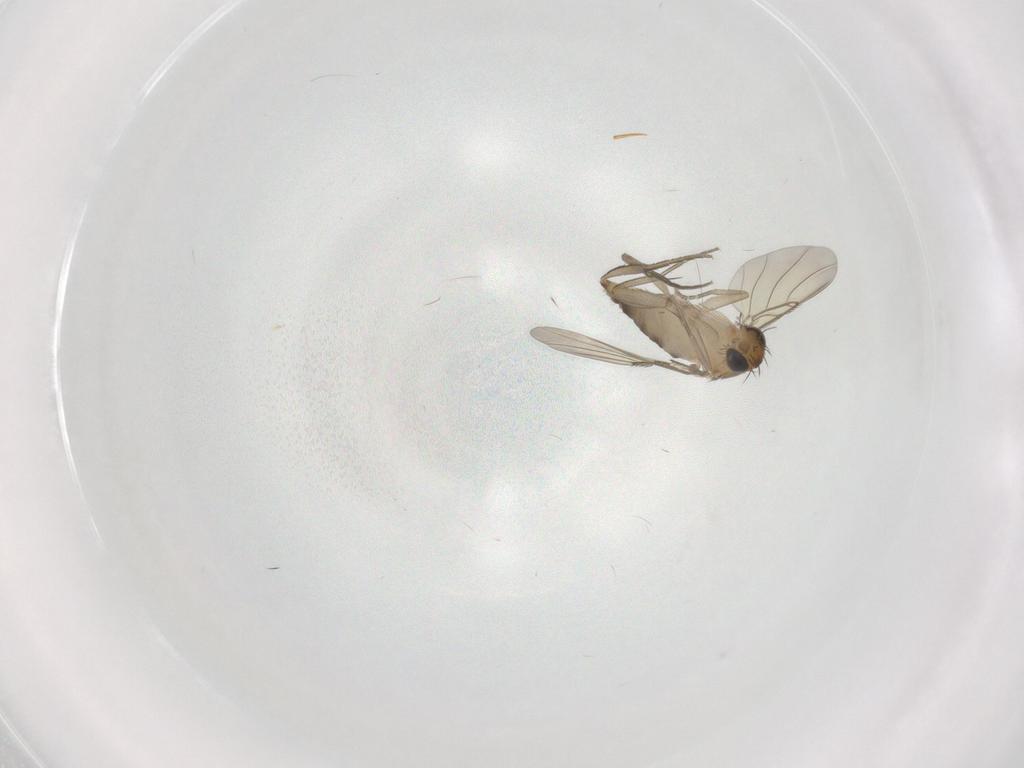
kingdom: Animalia
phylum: Arthropoda
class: Insecta
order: Diptera
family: Phoridae
